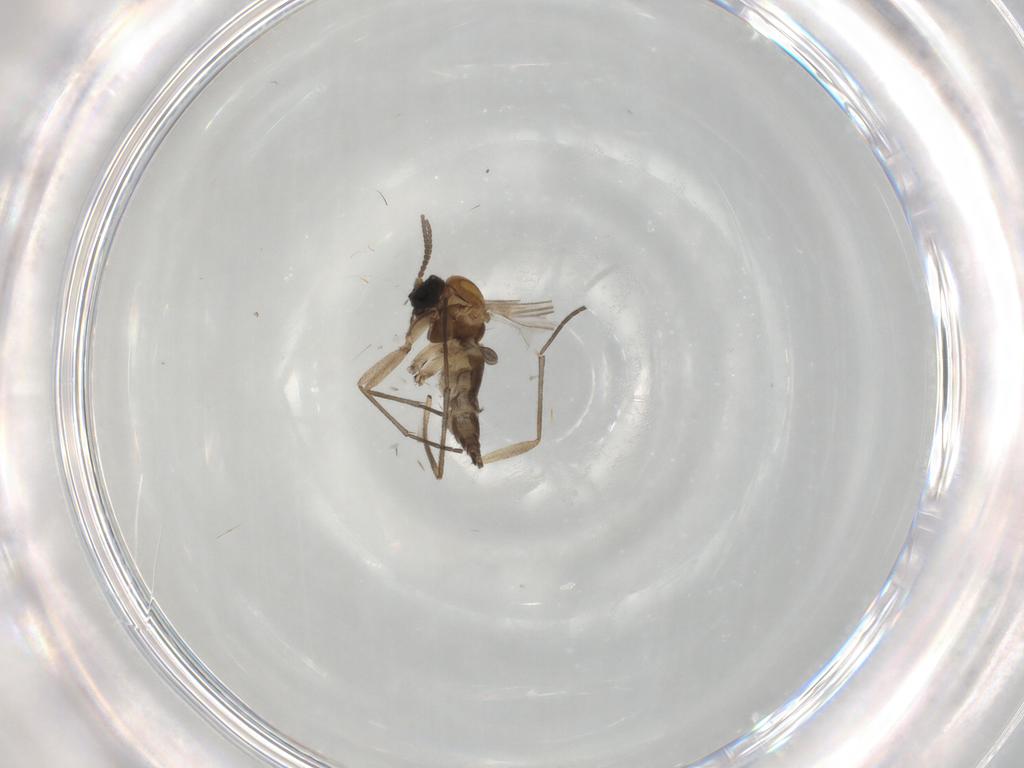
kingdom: Animalia
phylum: Arthropoda
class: Insecta
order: Diptera
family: Sciaridae
